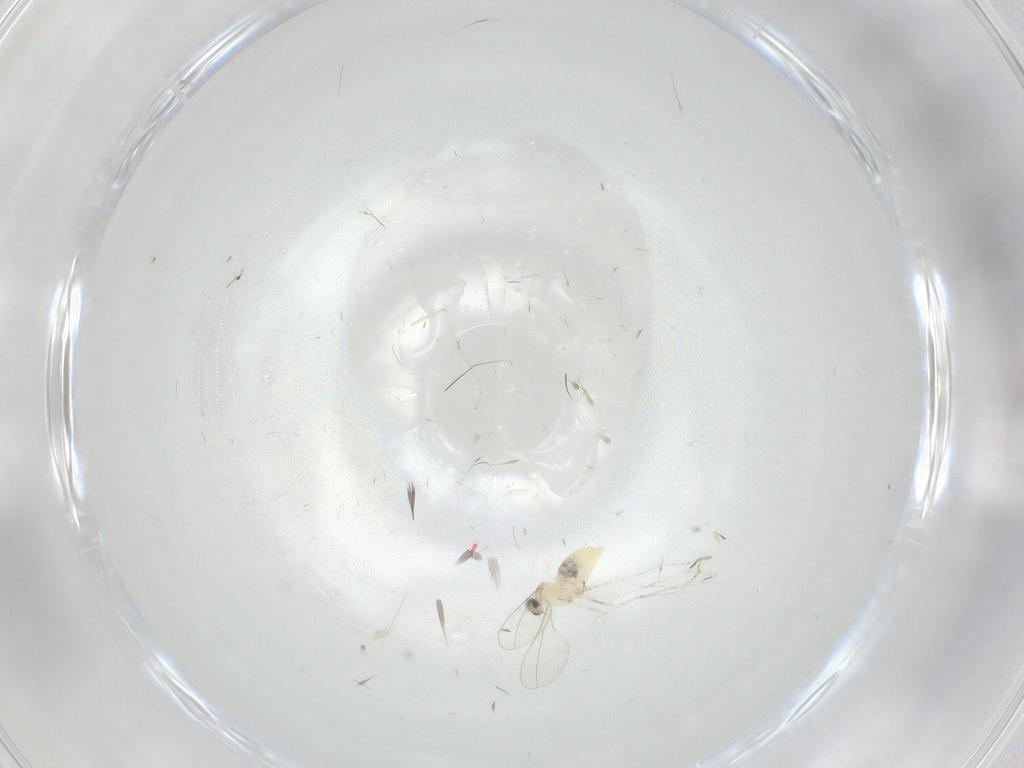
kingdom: Animalia
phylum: Arthropoda
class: Insecta
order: Diptera
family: Cecidomyiidae
